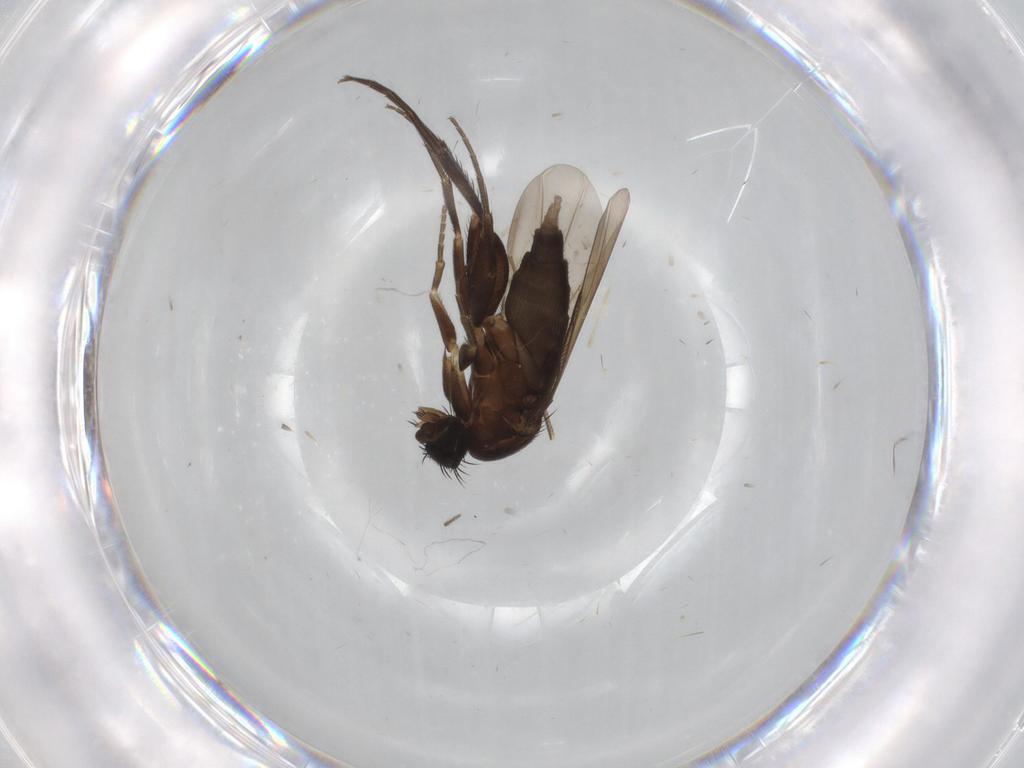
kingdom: Animalia
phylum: Arthropoda
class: Insecta
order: Diptera
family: Phoridae
